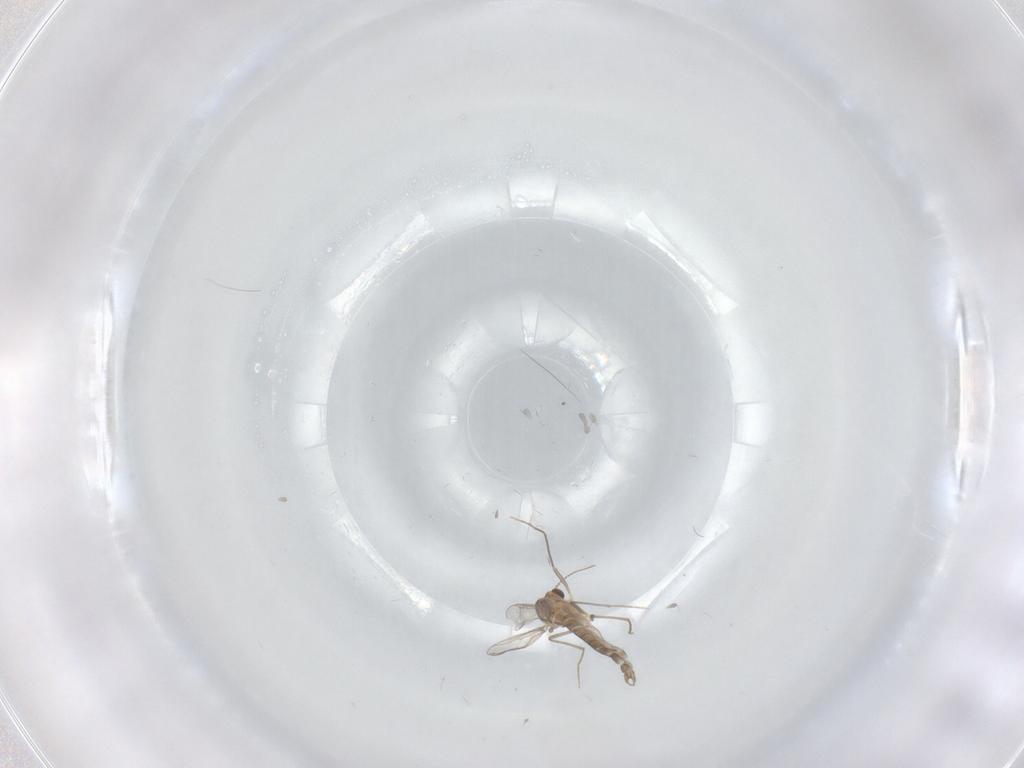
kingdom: Animalia
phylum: Arthropoda
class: Insecta
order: Diptera
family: Chironomidae
